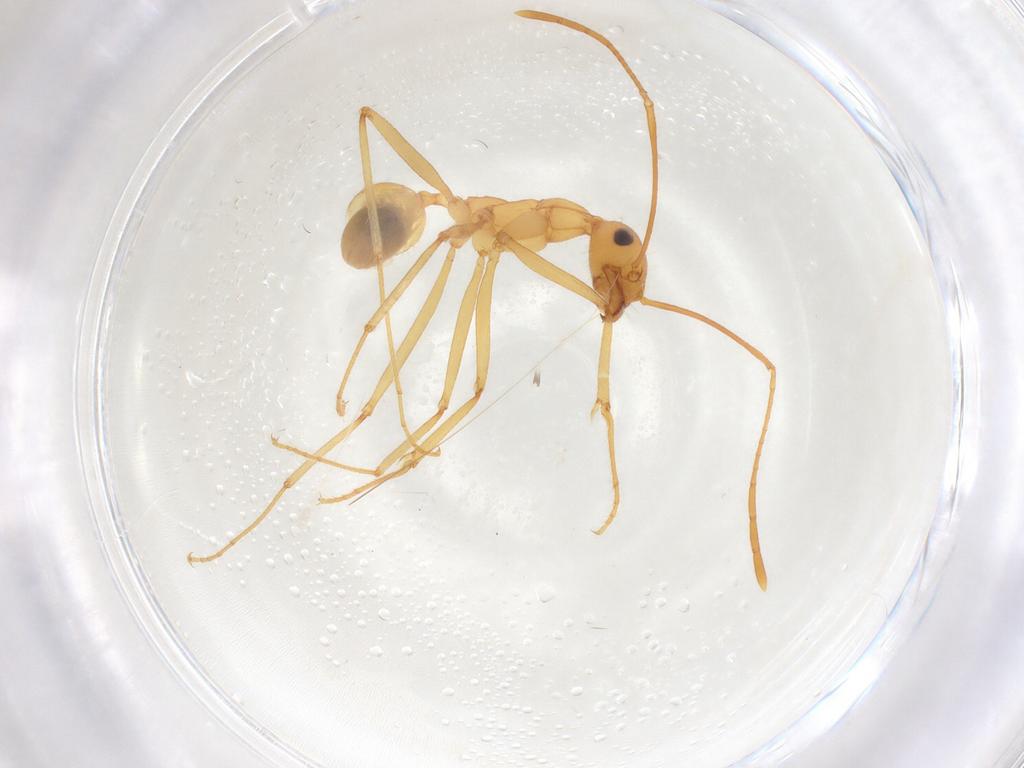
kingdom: Animalia
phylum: Arthropoda
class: Insecta
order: Hymenoptera
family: Formicidae
